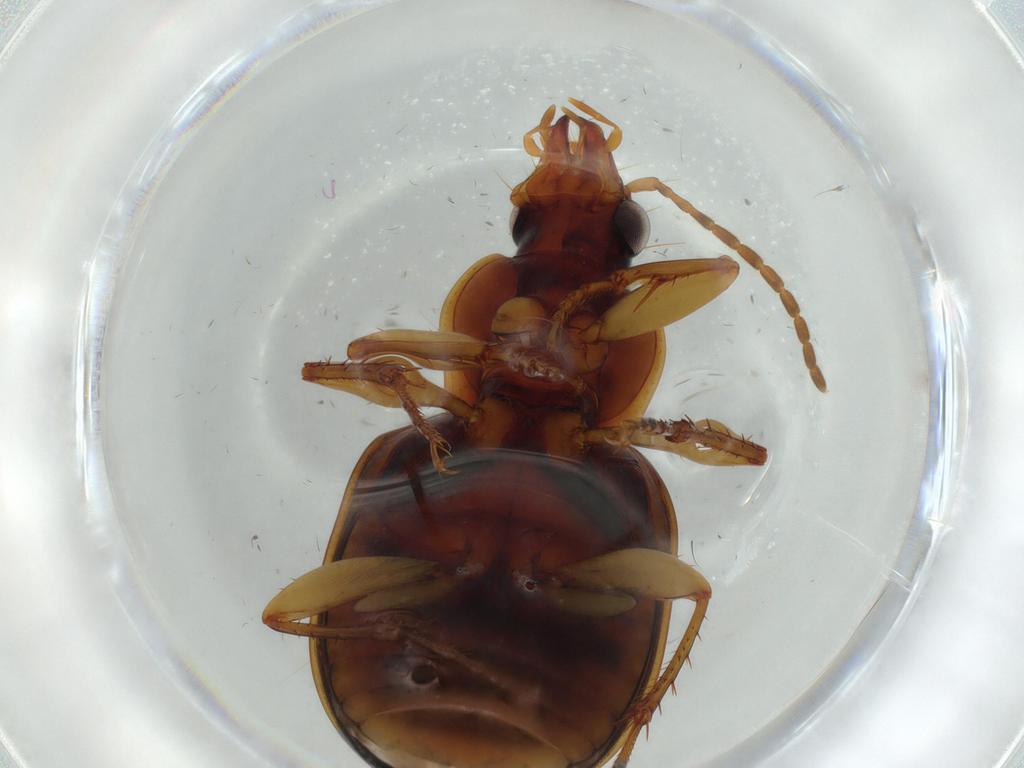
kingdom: Animalia
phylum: Arthropoda
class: Insecta
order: Coleoptera
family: Carabidae
